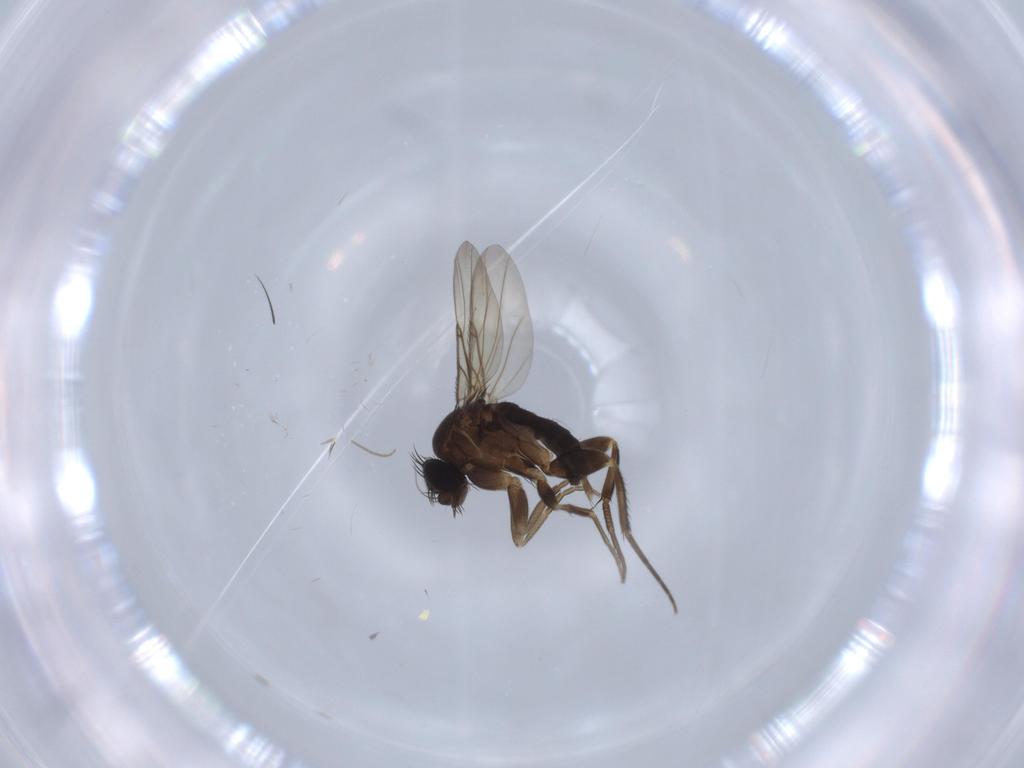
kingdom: Animalia
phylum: Arthropoda
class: Insecta
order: Diptera
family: Phoridae
